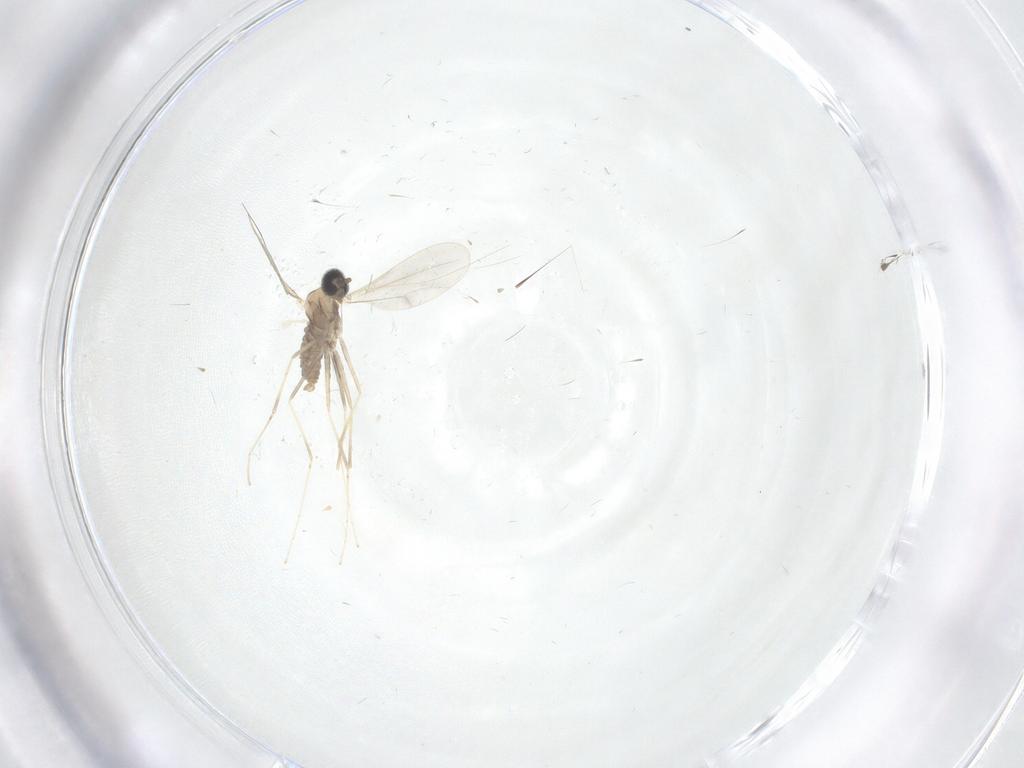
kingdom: Animalia
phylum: Arthropoda
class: Insecta
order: Diptera
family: Cecidomyiidae
